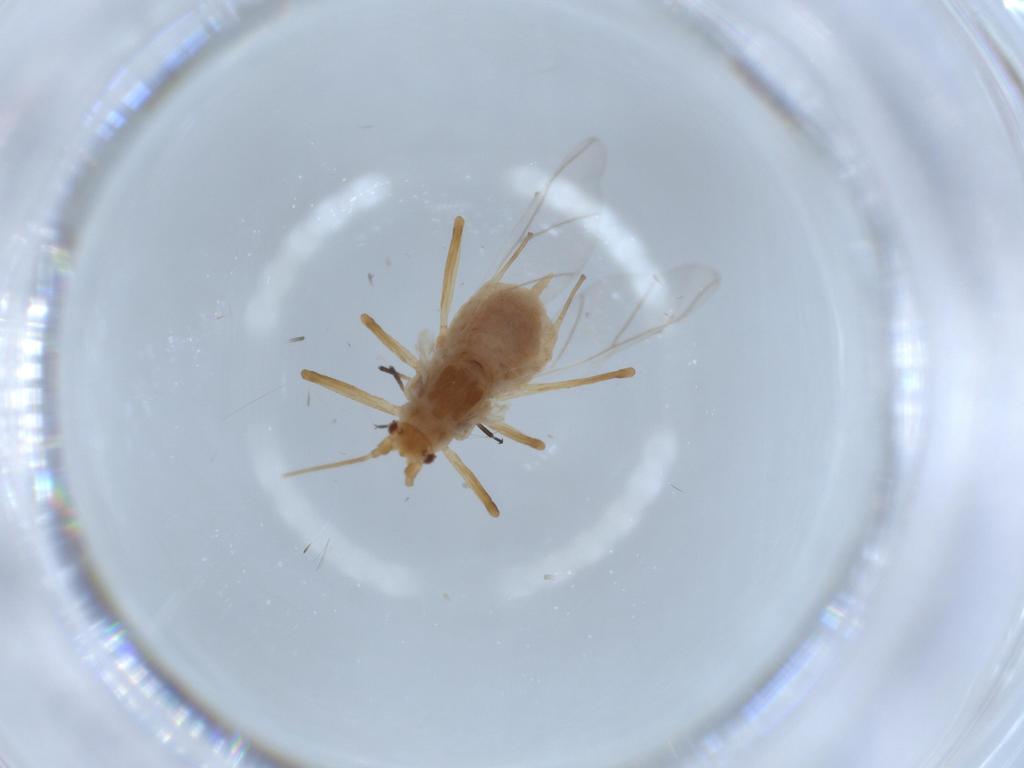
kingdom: Animalia
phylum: Arthropoda
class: Insecta
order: Hemiptera
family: Aphididae
